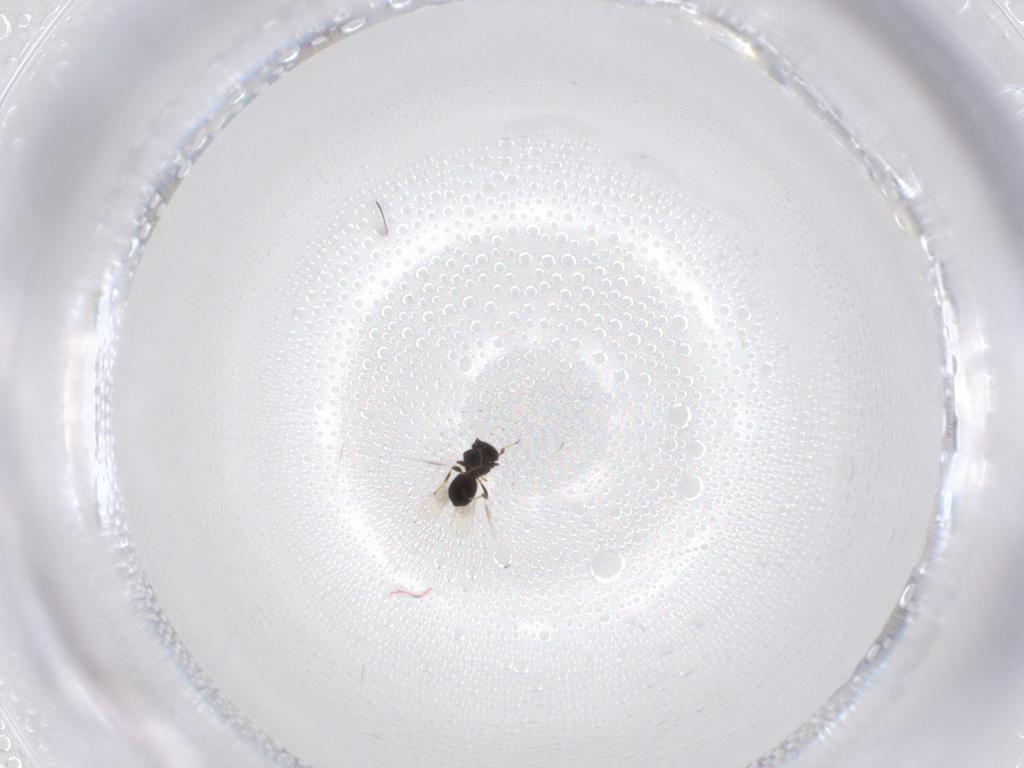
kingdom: Animalia
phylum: Arthropoda
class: Insecta
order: Hymenoptera
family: Scelionidae
